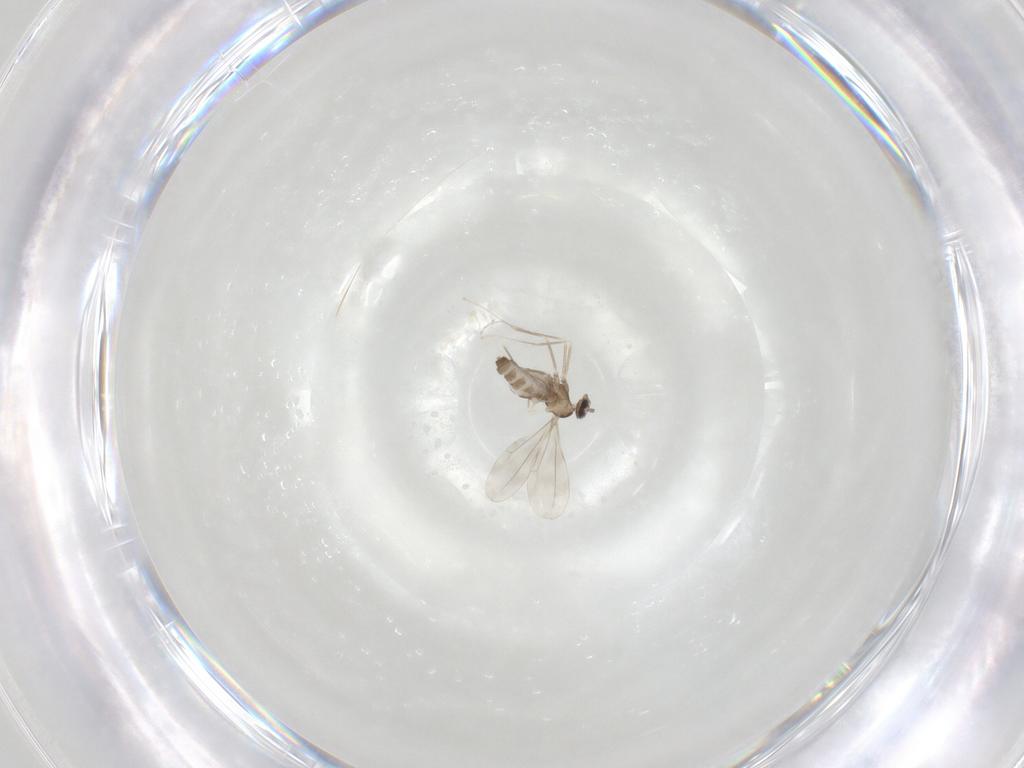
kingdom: Animalia
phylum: Arthropoda
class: Insecta
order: Diptera
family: Cecidomyiidae
